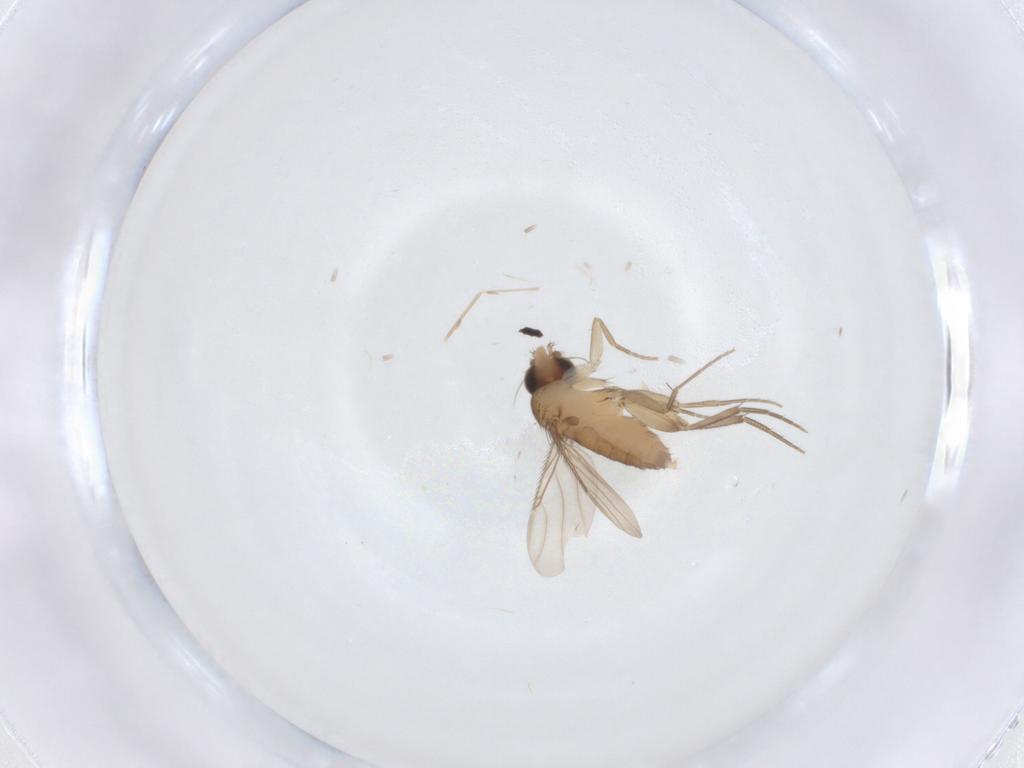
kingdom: Animalia
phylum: Arthropoda
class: Insecta
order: Diptera
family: Phoridae
